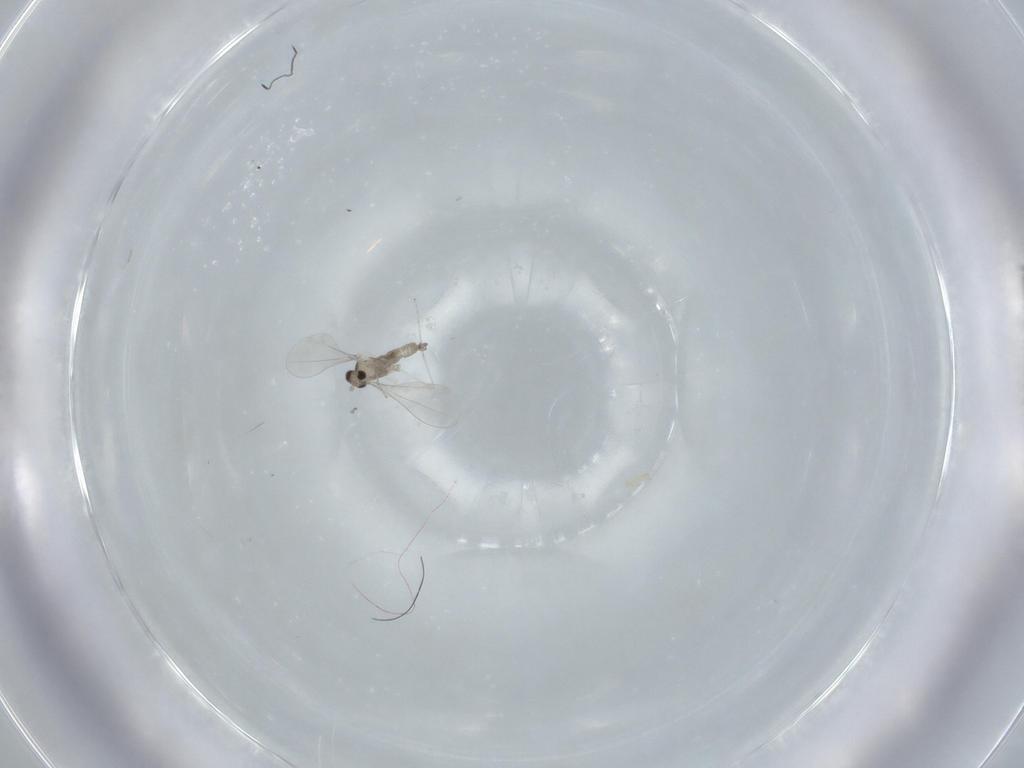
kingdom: Animalia
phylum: Arthropoda
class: Insecta
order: Diptera
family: Cecidomyiidae
